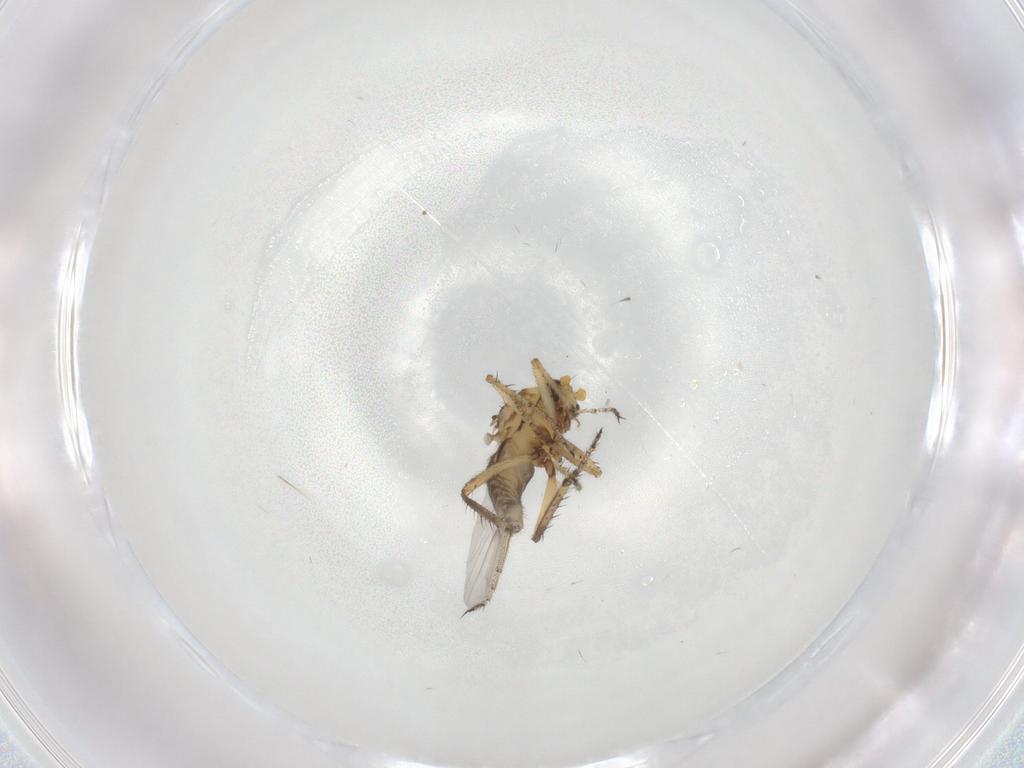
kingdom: Animalia
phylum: Arthropoda
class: Insecta
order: Diptera
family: Ceratopogonidae
